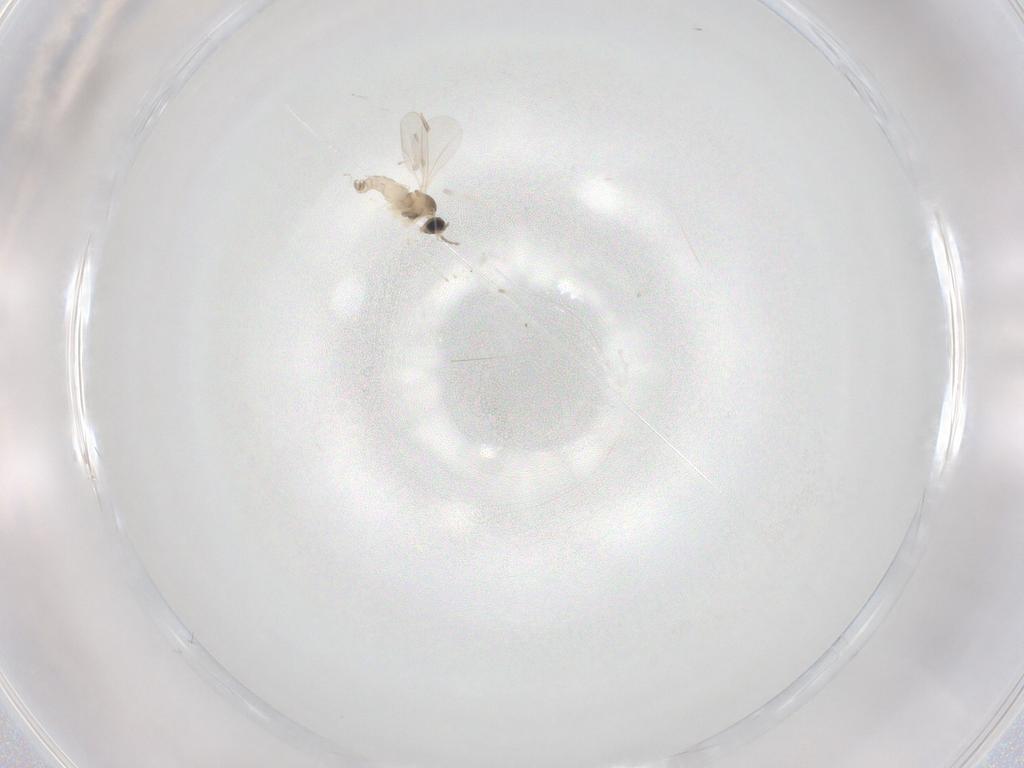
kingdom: Animalia
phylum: Arthropoda
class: Insecta
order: Diptera
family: Cecidomyiidae
